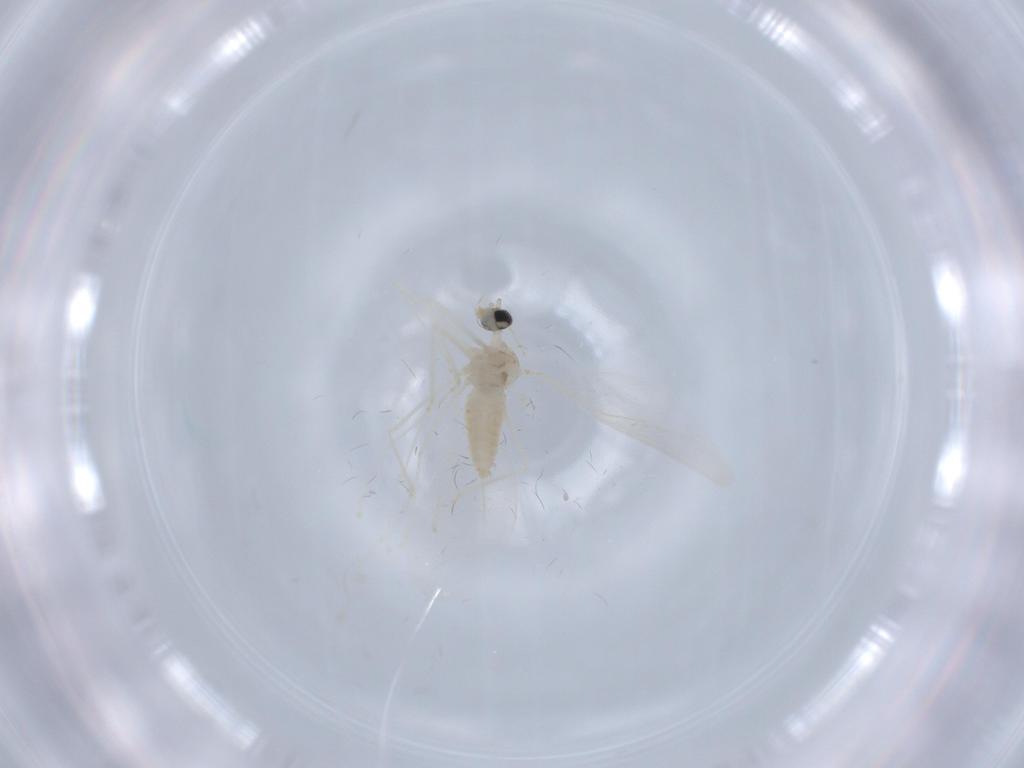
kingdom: Animalia
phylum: Arthropoda
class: Insecta
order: Diptera
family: Cecidomyiidae
